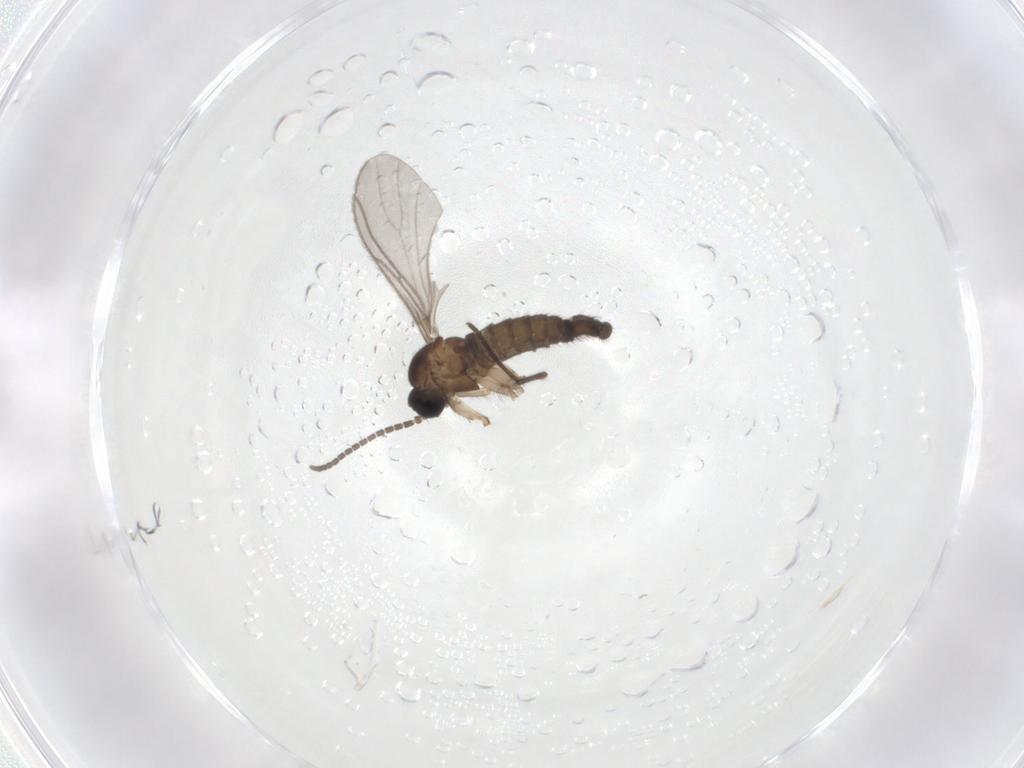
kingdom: Animalia
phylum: Arthropoda
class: Insecta
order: Diptera
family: Sciaridae
